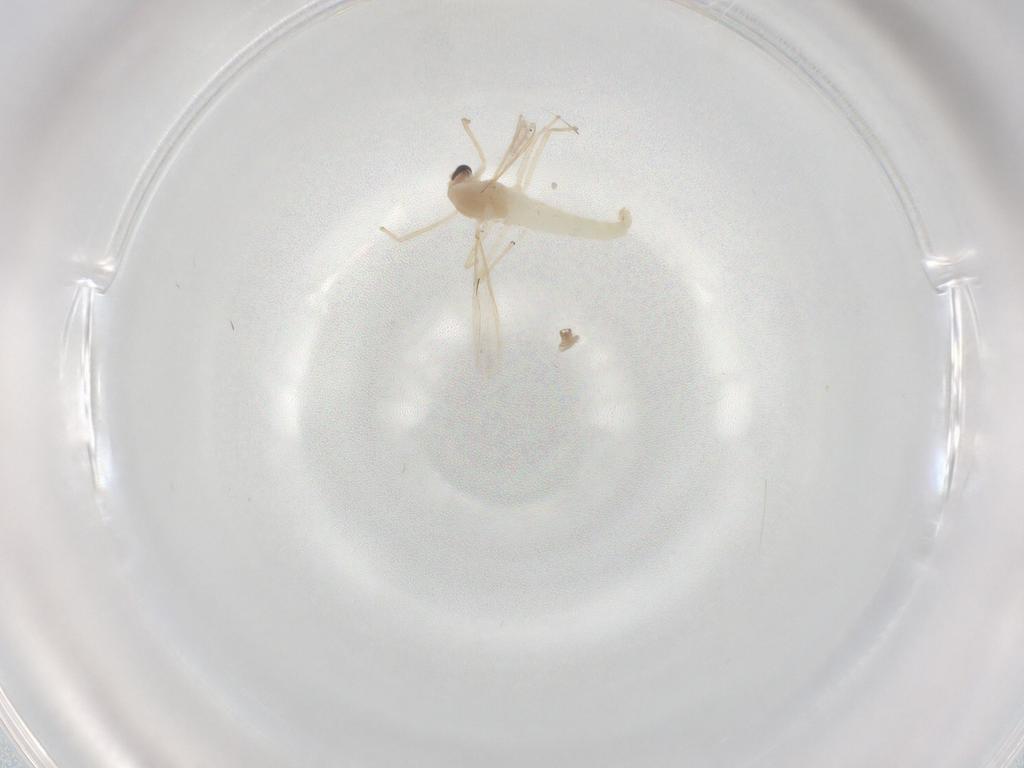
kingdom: Animalia
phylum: Arthropoda
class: Insecta
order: Diptera
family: Chironomidae
